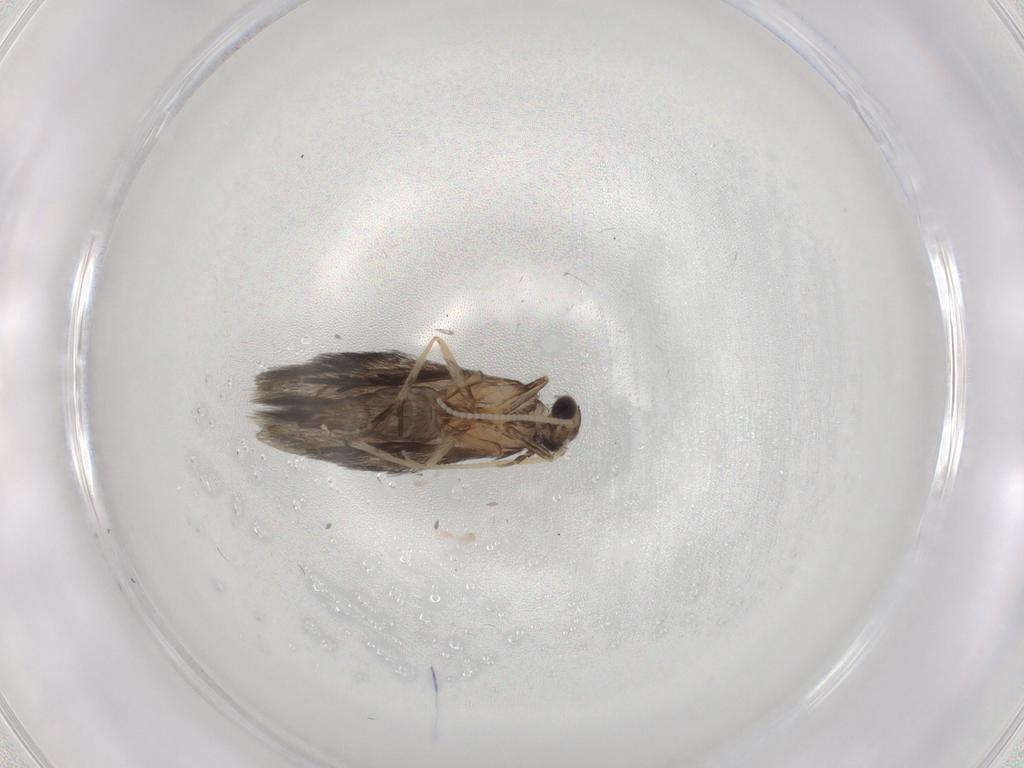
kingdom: Animalia
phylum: Arthropoda
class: Insecta
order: Trichoptera
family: Hydroptilidae
